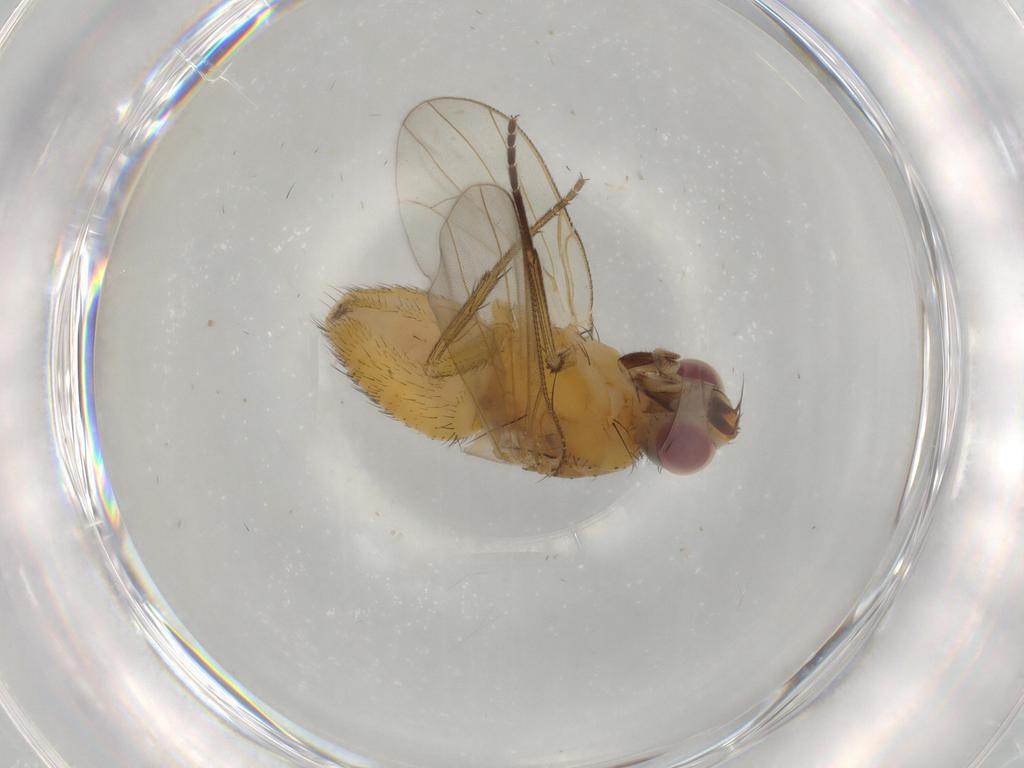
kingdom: Animalia
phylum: Arthropoda
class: Insecta
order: Diptera
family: Muscidae
